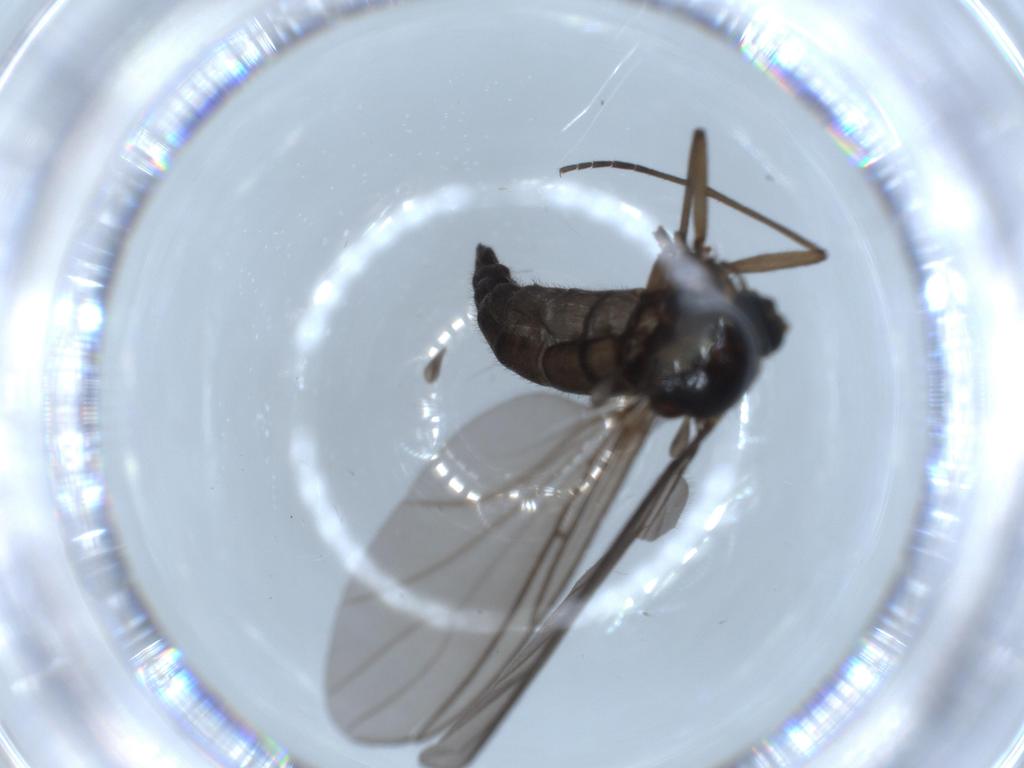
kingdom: Animalia
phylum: Arthropoda
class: Insecta
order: Diptera
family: Sciaridae
